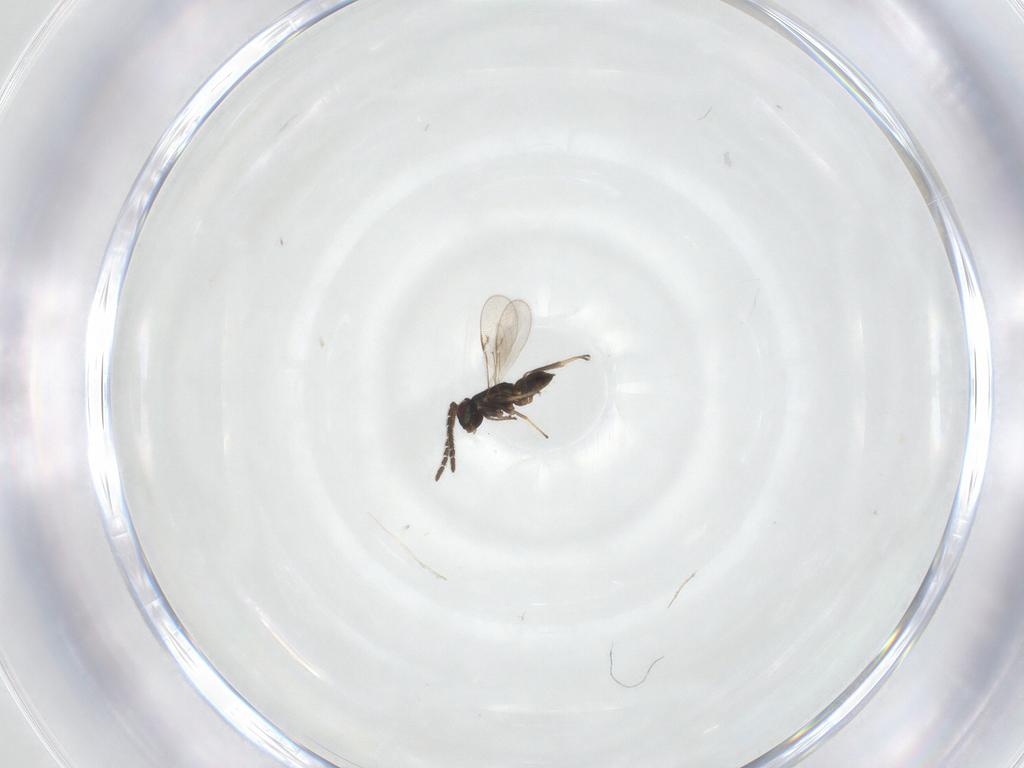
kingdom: Animalia
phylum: Arthropoda
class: Insecta
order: Hymenoptera
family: Encyrtidae
